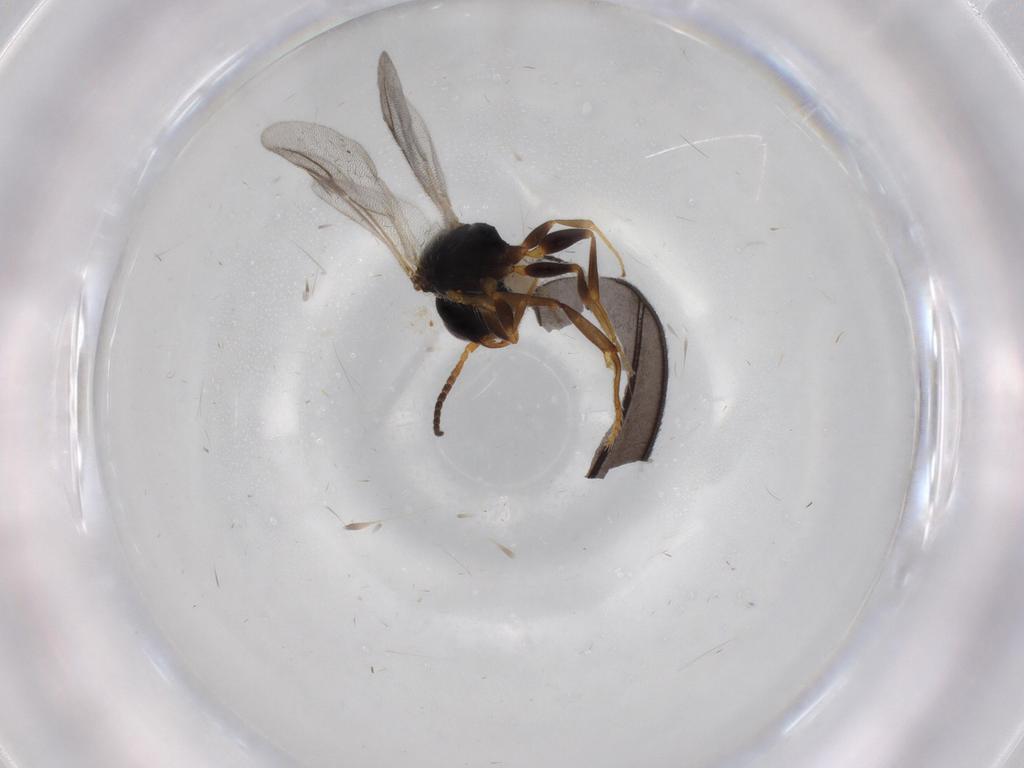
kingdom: Animalia
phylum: Arthropoda
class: Insecta
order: Hymenoptera
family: Bethylidae
